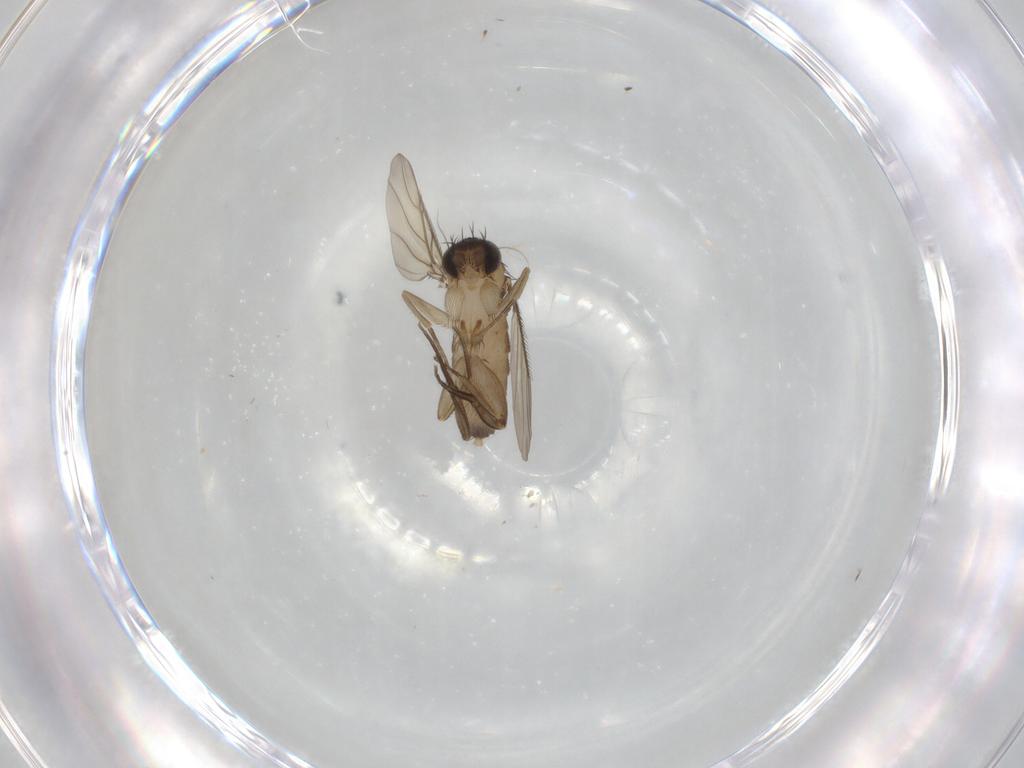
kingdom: Animalia
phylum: Arthropoda
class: Insecta
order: Diptera
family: Phoridae
